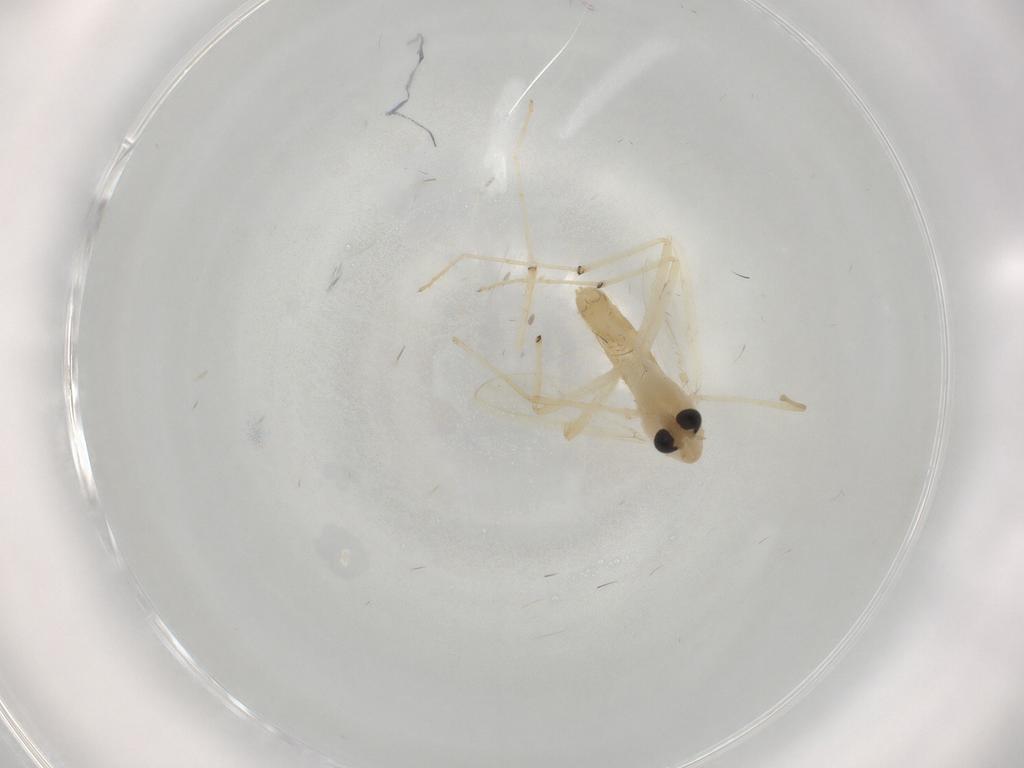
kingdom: Animalia
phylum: Arthropoda
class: Insecta
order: Diptera
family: Chironomidae
